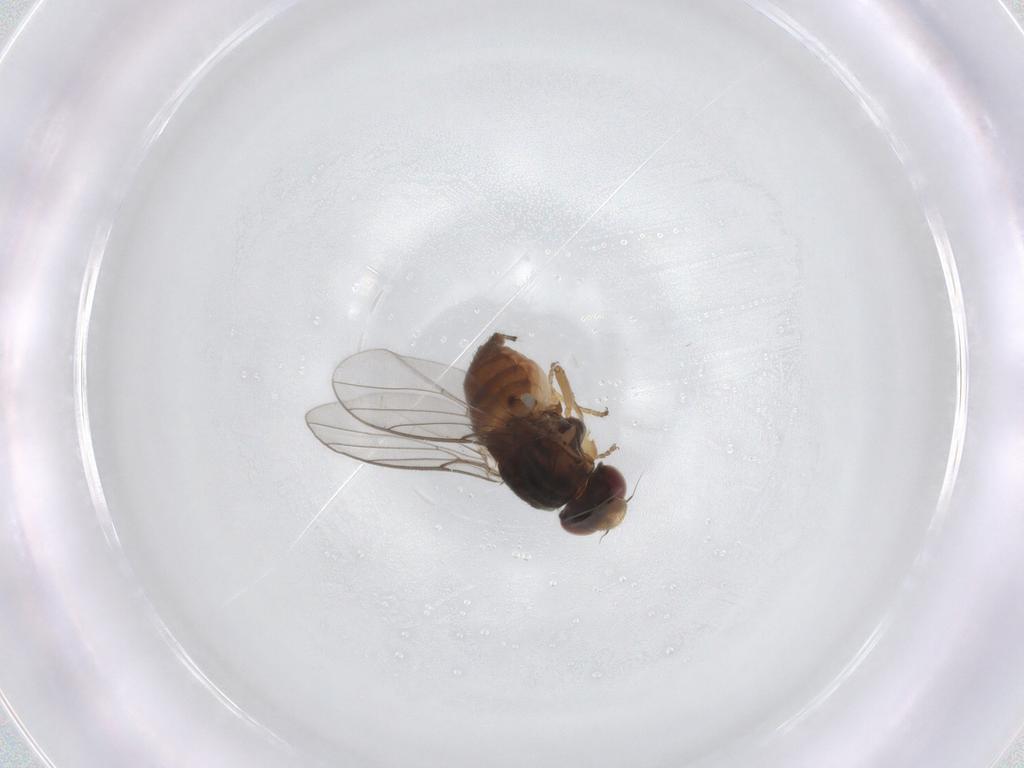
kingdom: Animalia
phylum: Arthropoda
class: Insecta
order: Diptera
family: Chloropidae
